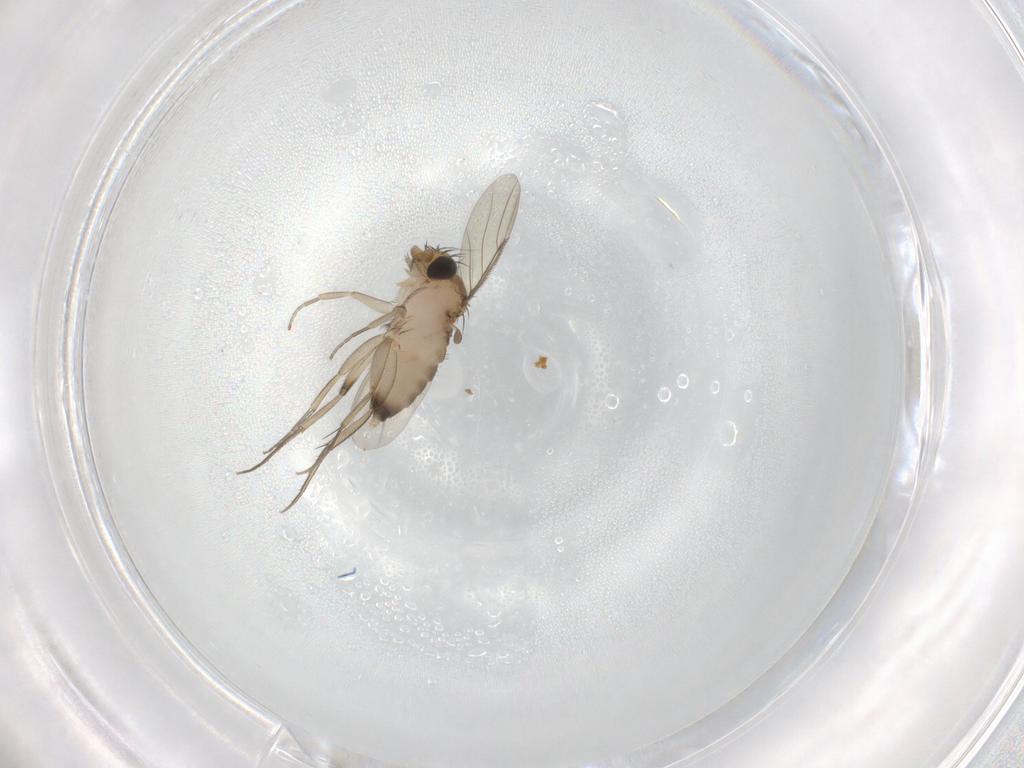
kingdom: Animalia
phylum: Arthropoda
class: Insecta
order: Diptera
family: Phoridae
